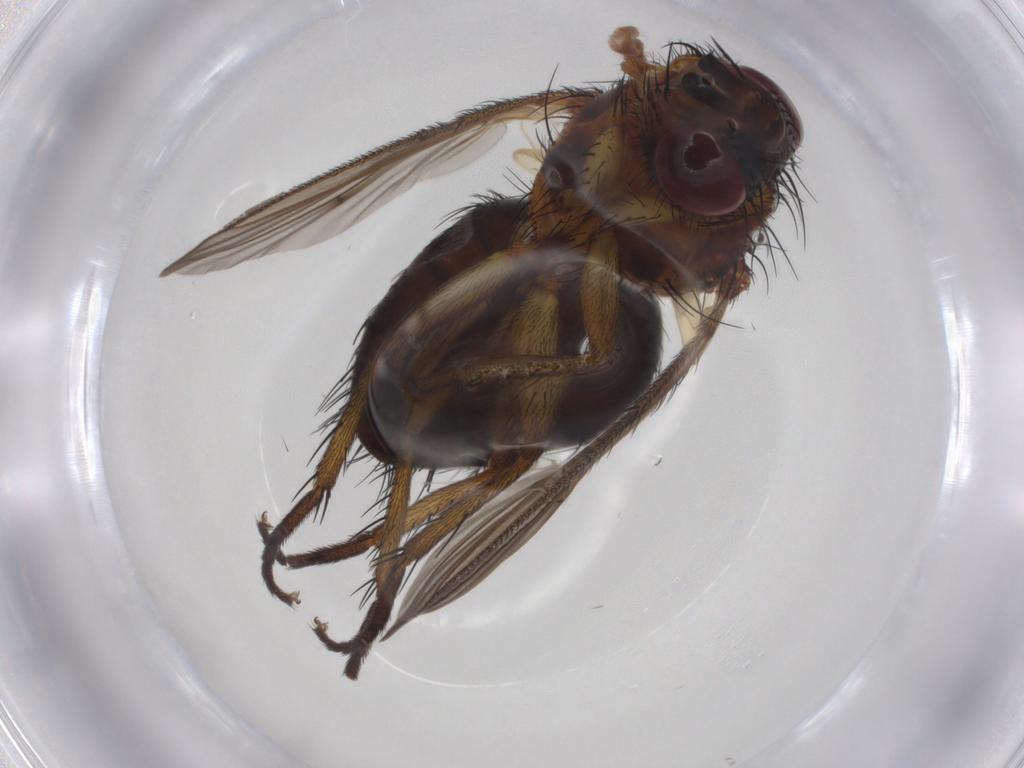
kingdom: Animalia
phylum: Arthropoda
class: Insecta
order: Diptera
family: Tachinidae
